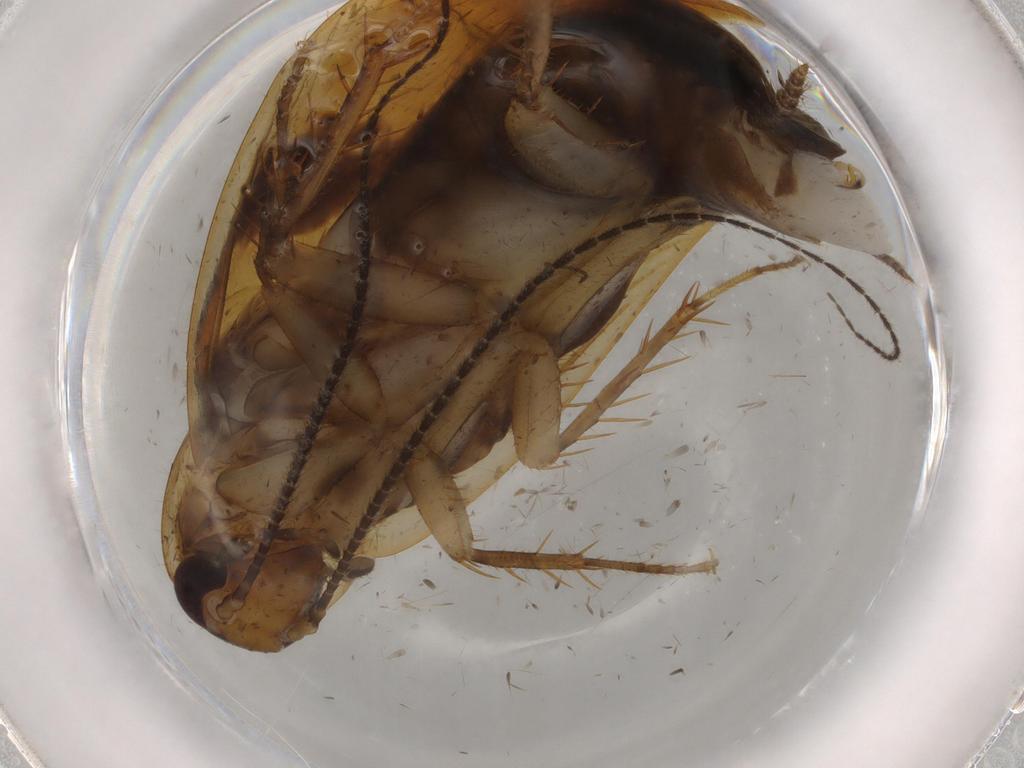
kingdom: Animalia
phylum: Arthropoda
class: Insecta
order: Blattodea
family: Ectobiidae
